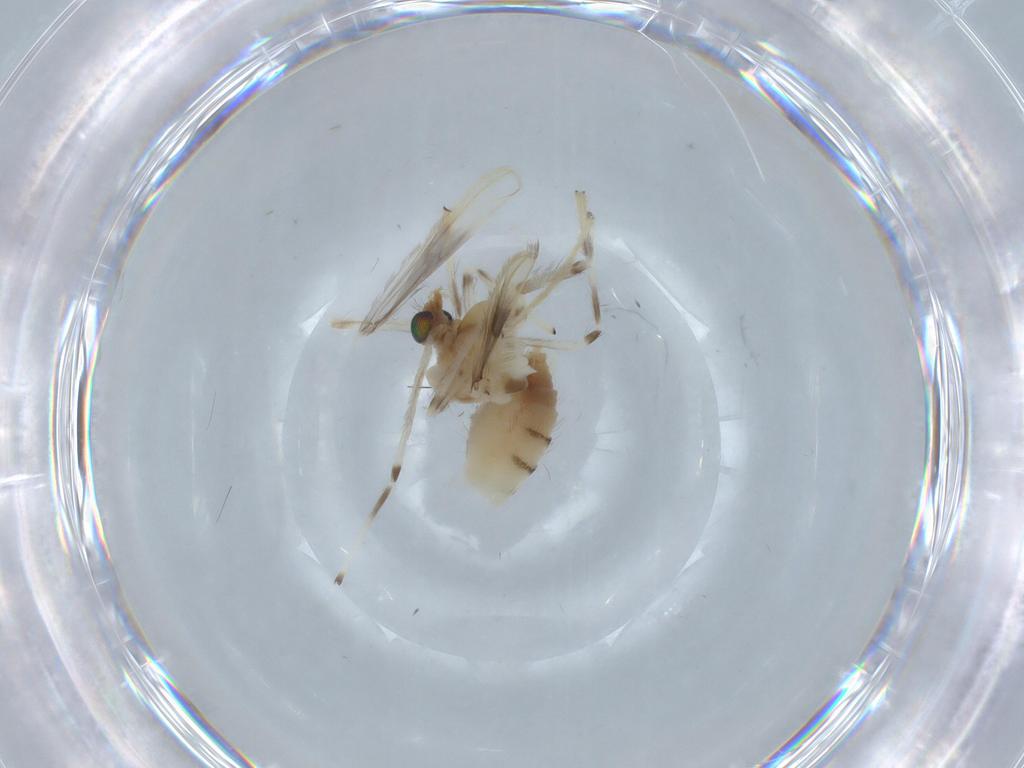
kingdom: Animalia
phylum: Arthropoda
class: Insecta
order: Diptera
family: Chironomidae
